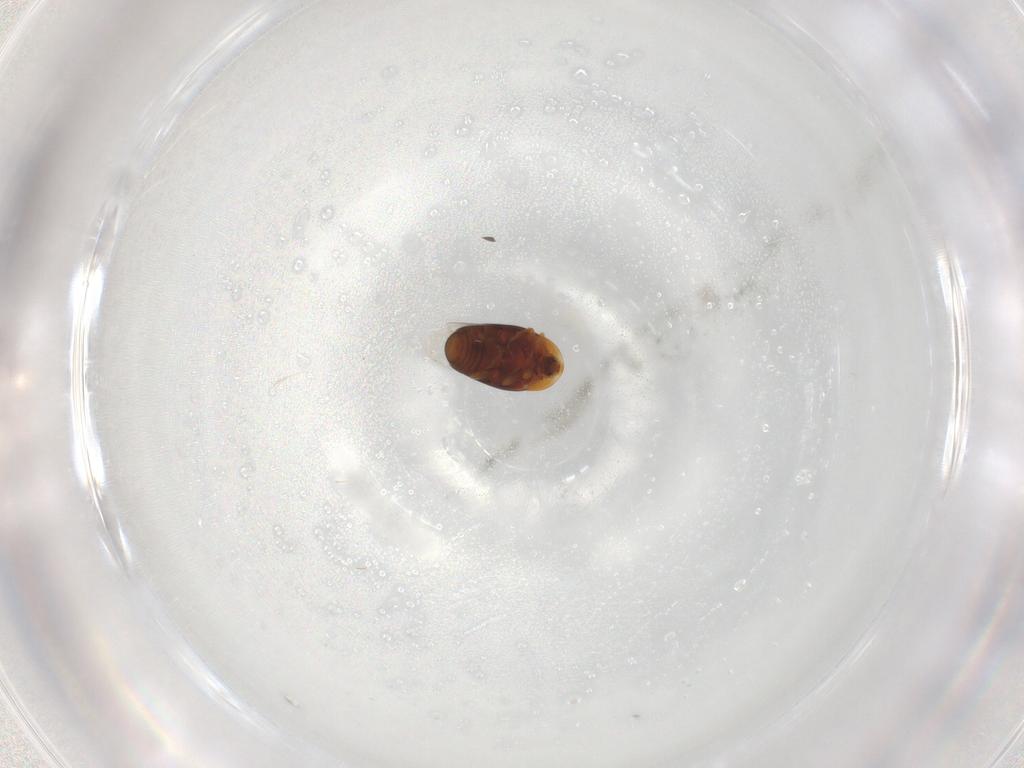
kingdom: Animalia
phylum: Arthropoda
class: Insecta
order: Coleoptera
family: Corylophidae
